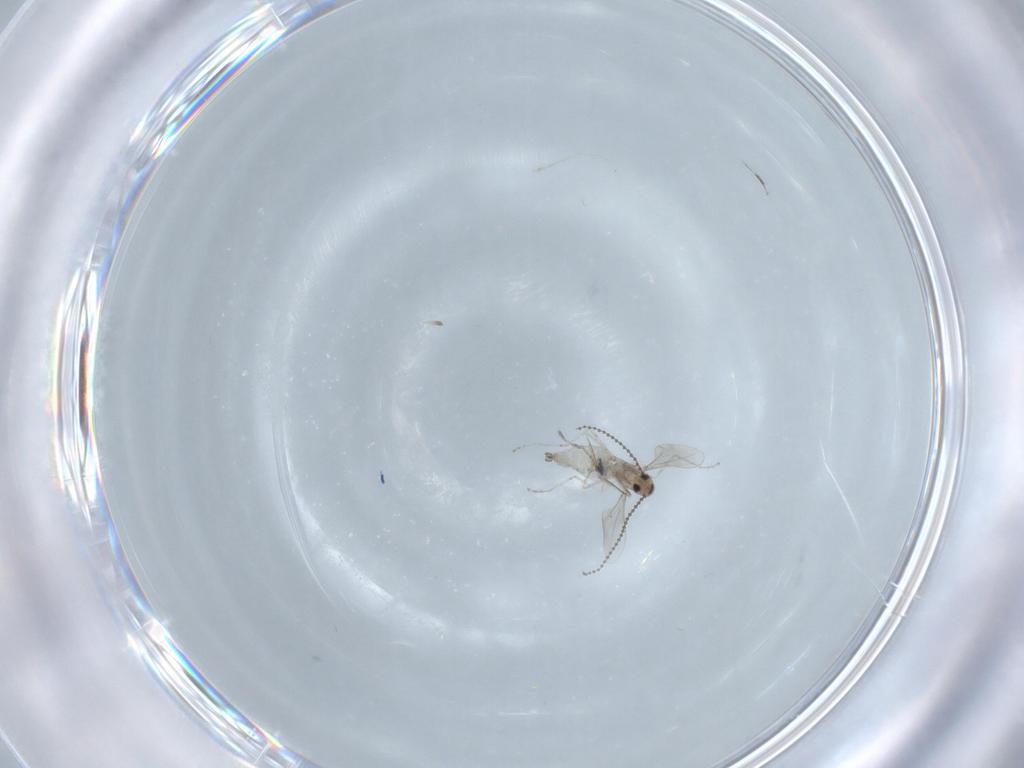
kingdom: Animalia
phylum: Arthropoda
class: Insecta
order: Diptera
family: Cecidomyiidae
